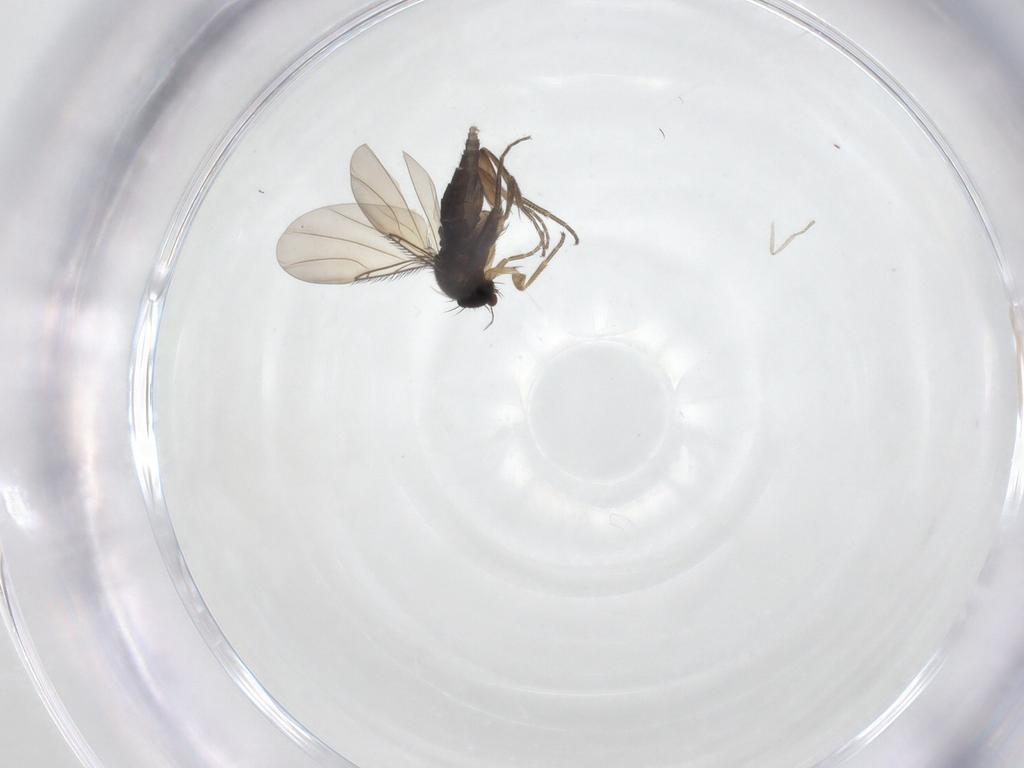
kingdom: Animalia
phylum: Arthropoda
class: Insecta
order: Diptera
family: Phoridae
